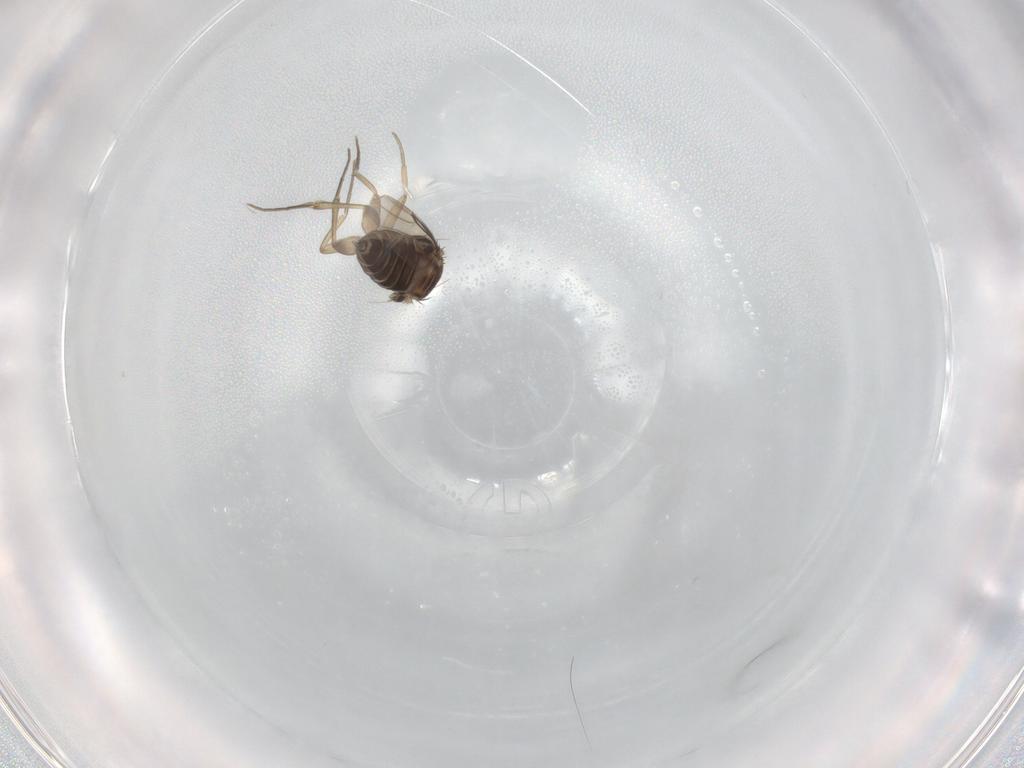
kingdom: Animalia
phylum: Arthropoda
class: Insecta
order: Diptera
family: Phoridae
